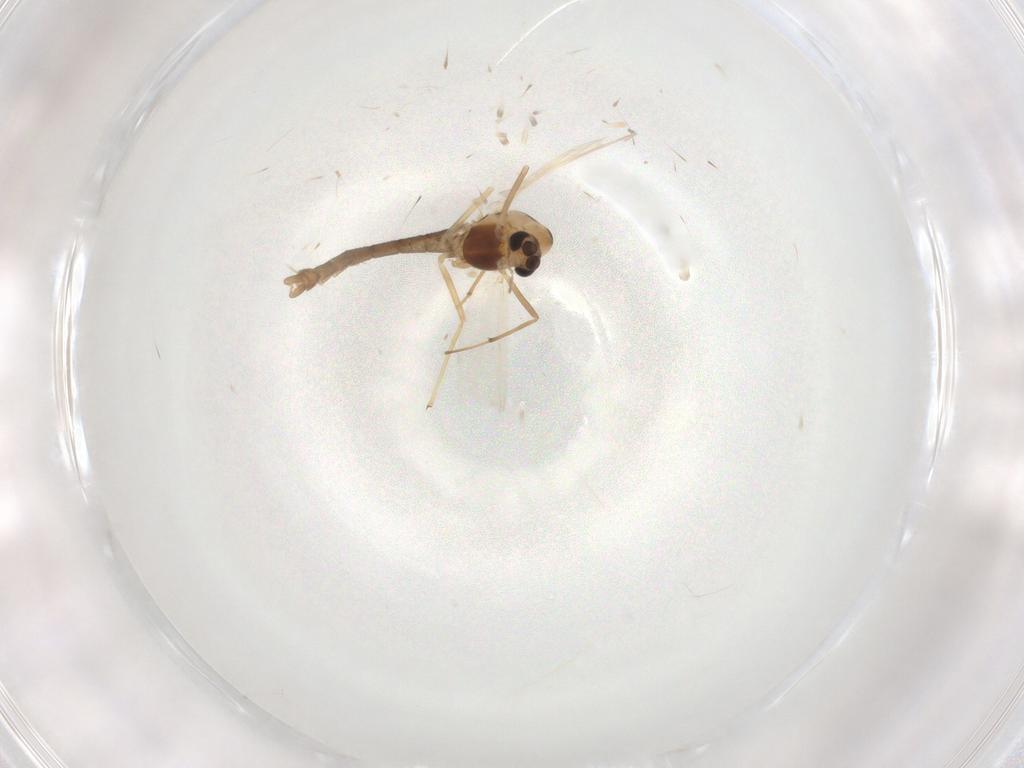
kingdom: Animalia
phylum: Arthropoda
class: Insecta
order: Diptera
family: Chironomidae
